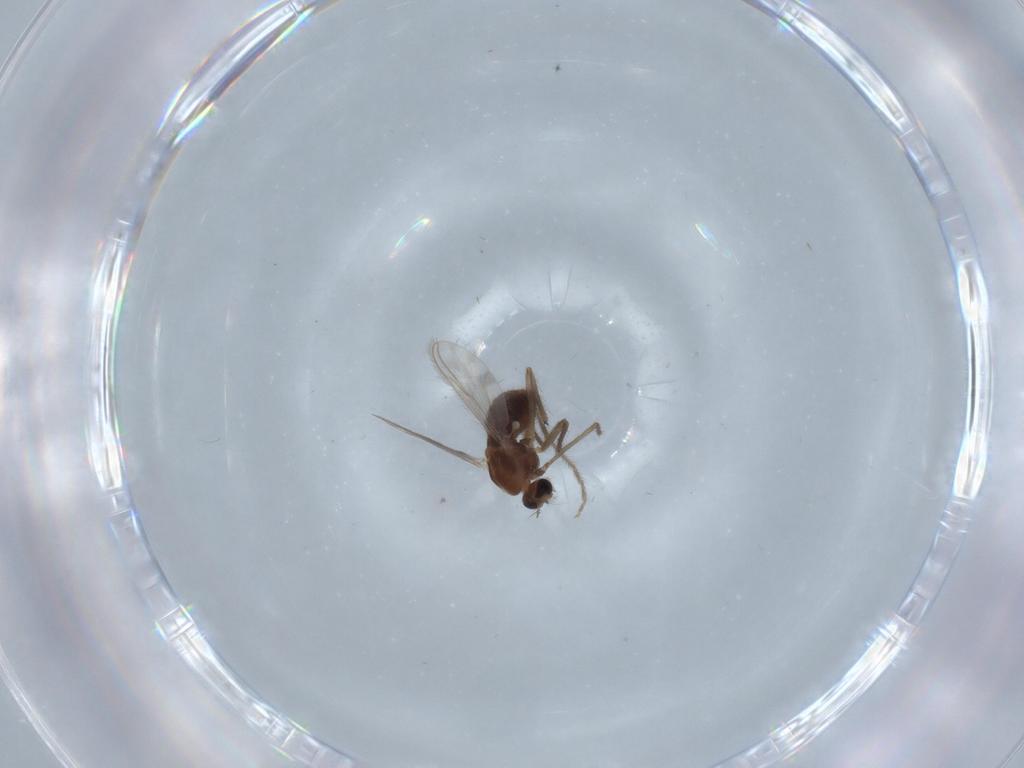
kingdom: Animalia
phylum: Arthropoda
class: Insecta
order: Diptera
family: Chironomidae
